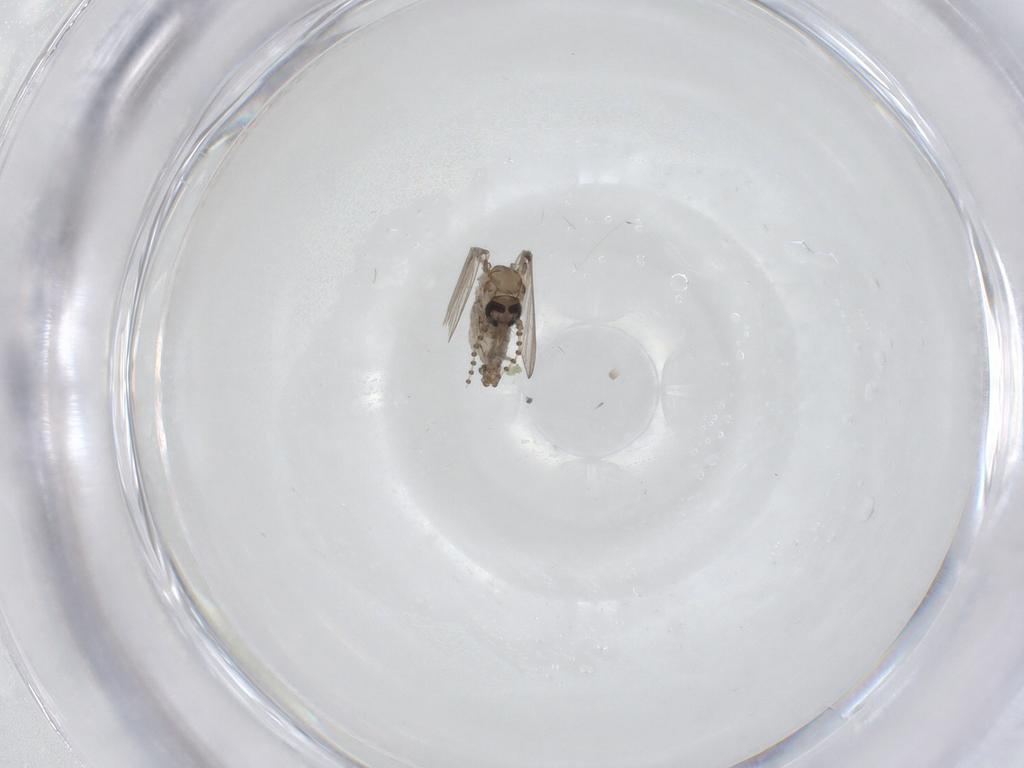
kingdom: Animalia
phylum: Arthropoda
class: Insecta
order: Diptera
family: Psychodidae
